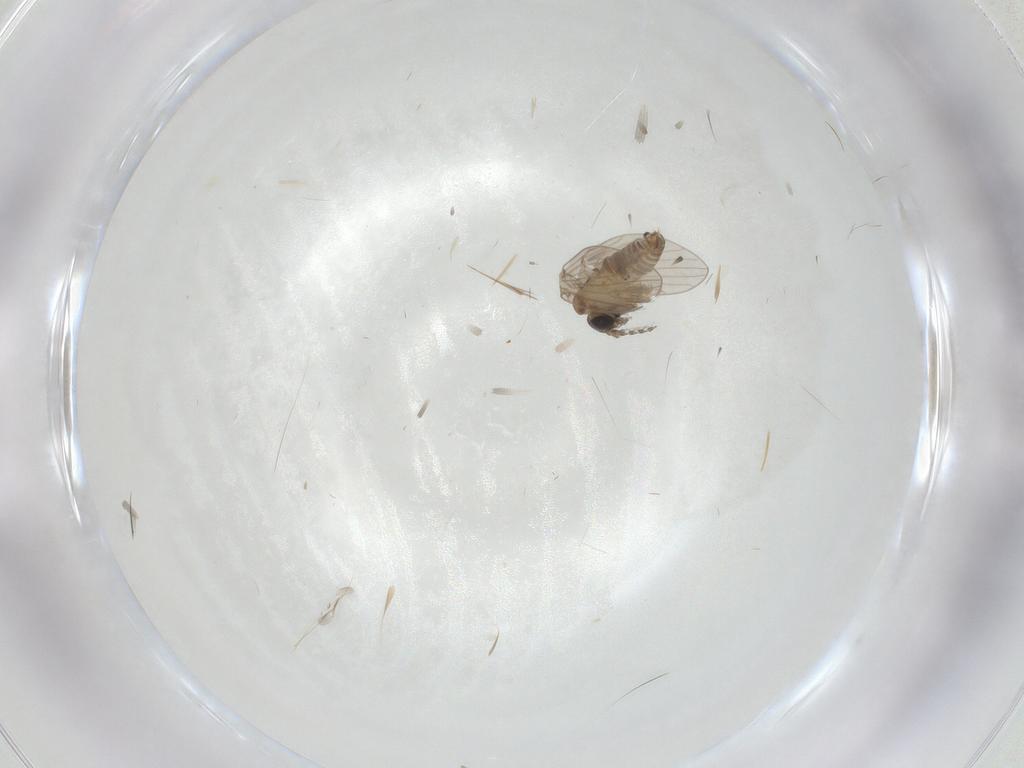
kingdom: Animalia
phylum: Arthropoda
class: Insecta
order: Diptera
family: Psychodidae
